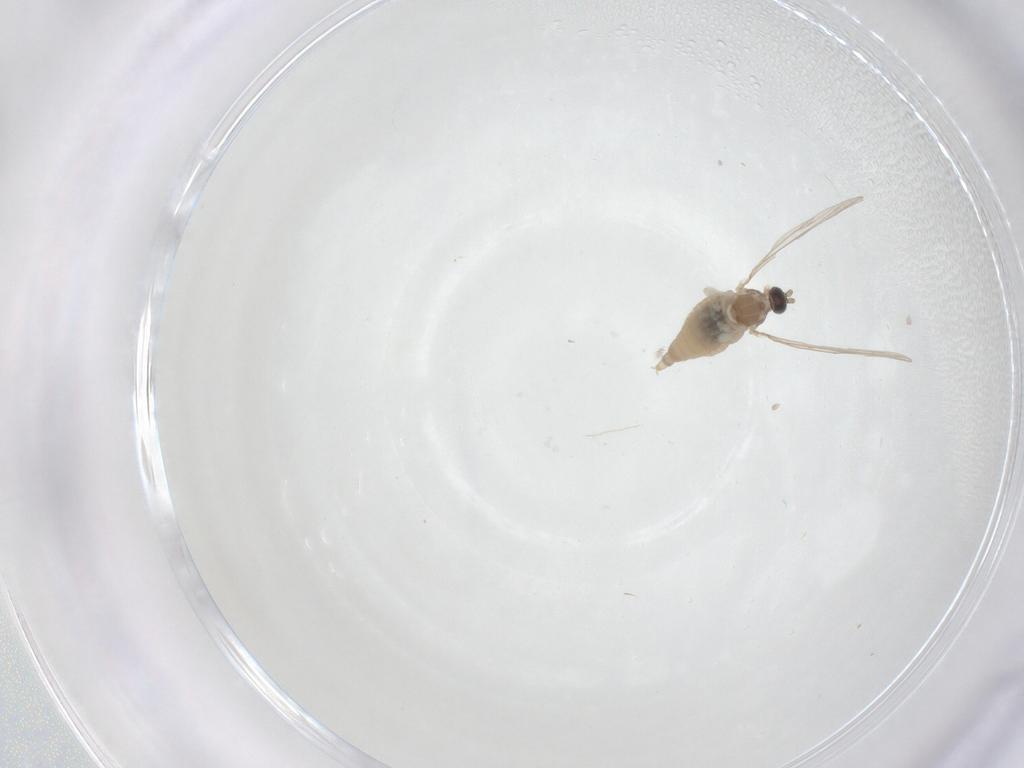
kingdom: Animalia
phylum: Arthropoda
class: Insecta
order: Diptera
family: Cecidomyiidae
